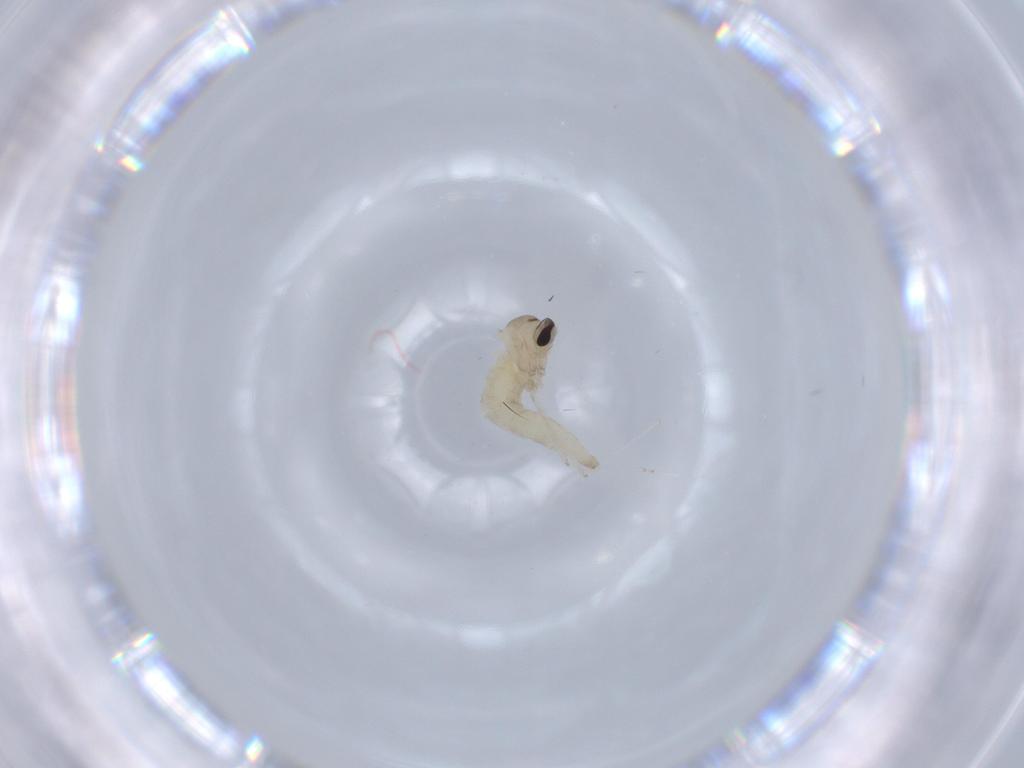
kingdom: Animalia
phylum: Arthropoda
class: Insecta
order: Diptera
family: Cecidomyiidae
